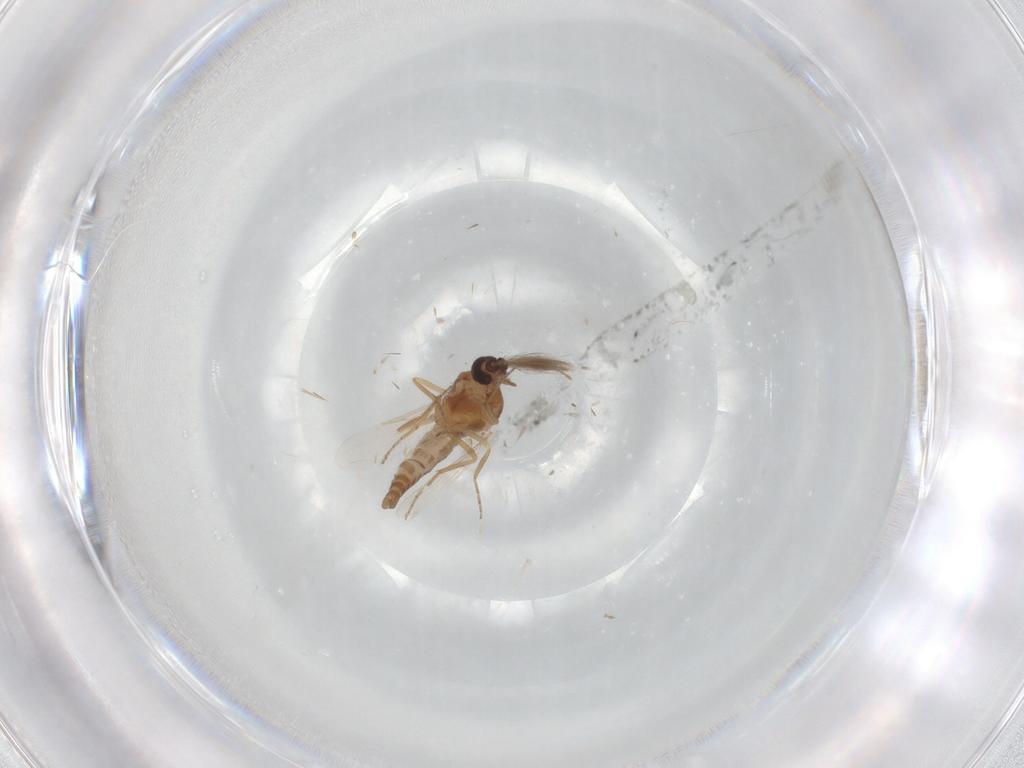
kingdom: Animalia
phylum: Arthropoda
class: Insecta
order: Diptera
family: Ceratopogonidae
